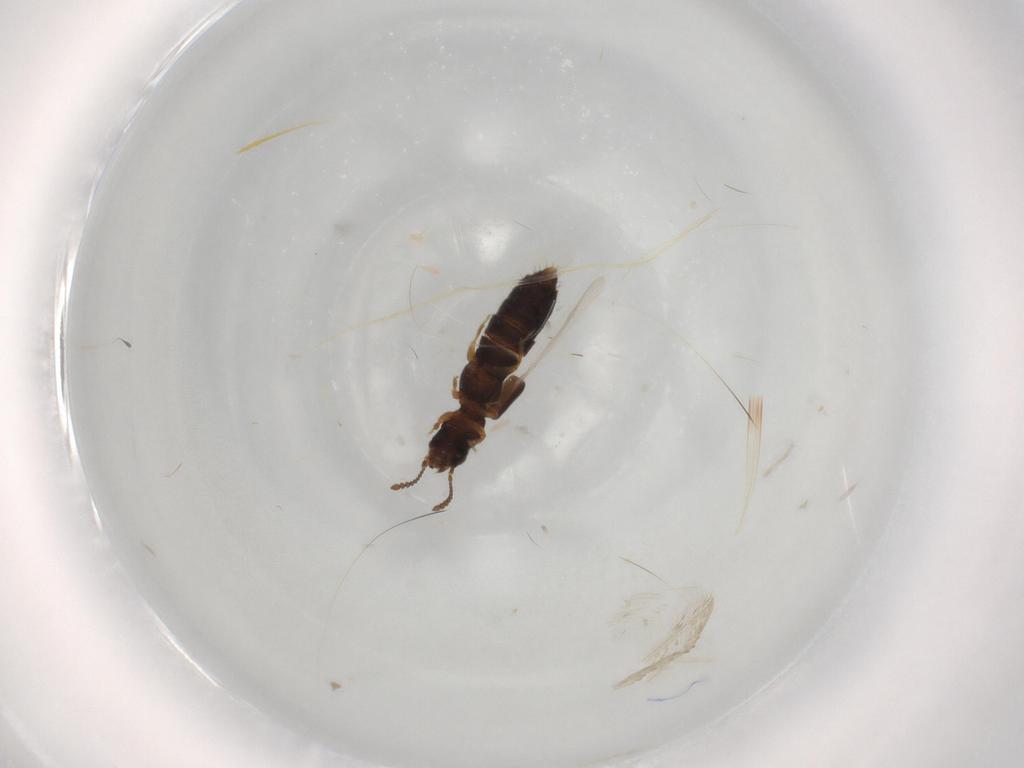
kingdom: Animalia
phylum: Arthropoda
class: Insecta
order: Coleoptera
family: Staphylinidae
